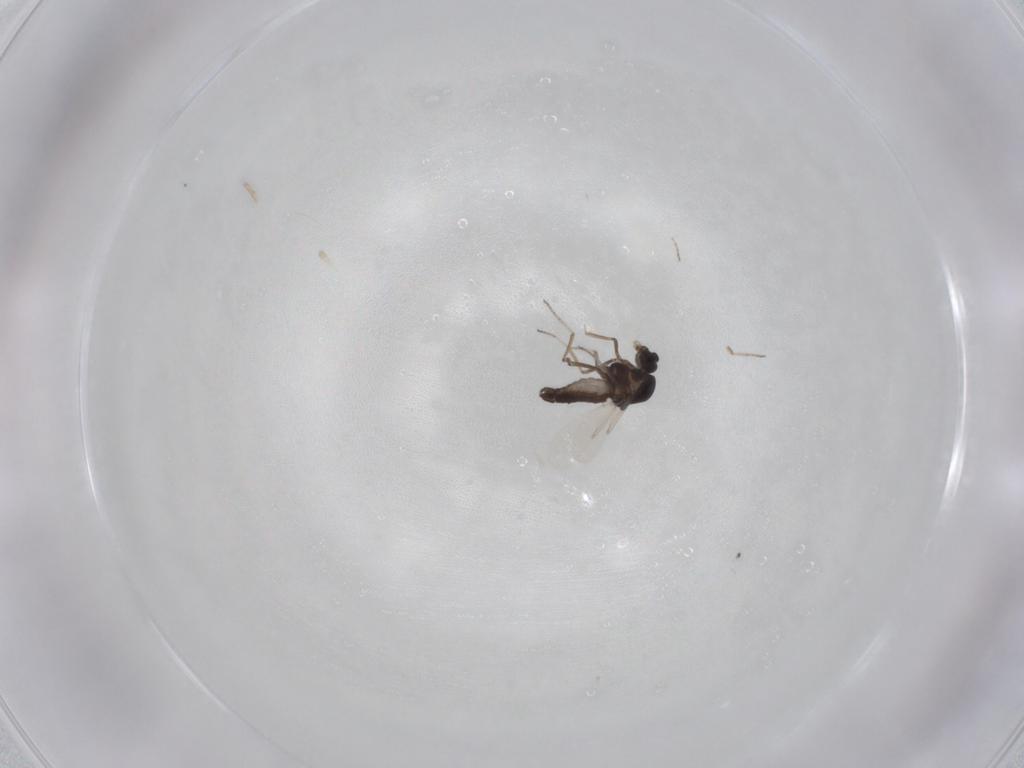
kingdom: Animalia
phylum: Arthropoda
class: Insecta
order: Diptera
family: Ceratopogonidae
